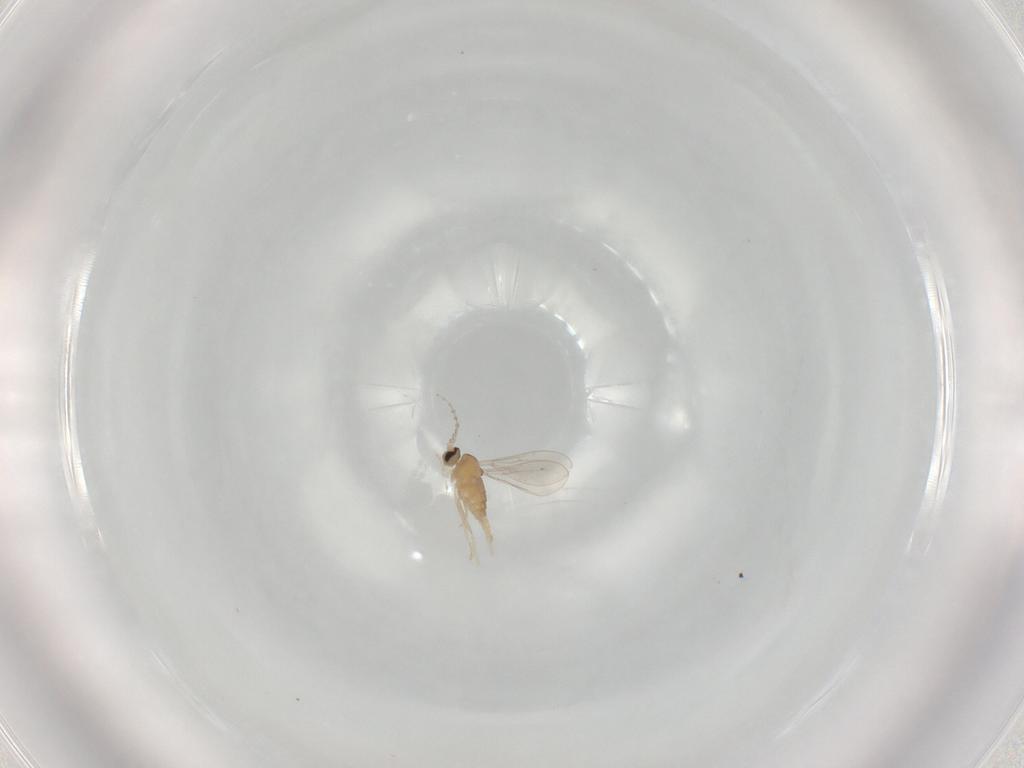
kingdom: Animalia
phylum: Arthropoda
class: Insecta
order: Diptera
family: Cecidomyiidae
